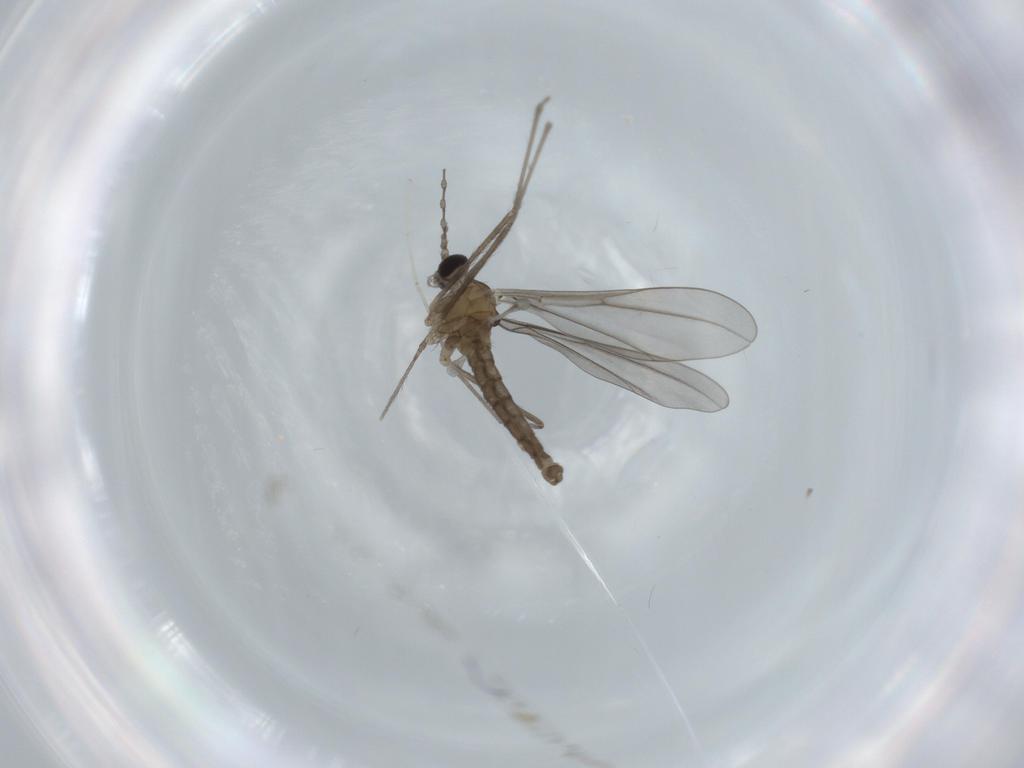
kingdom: Animalia
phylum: Arthropoda
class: Insecta
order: Diptera
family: Cecidomyiidae
